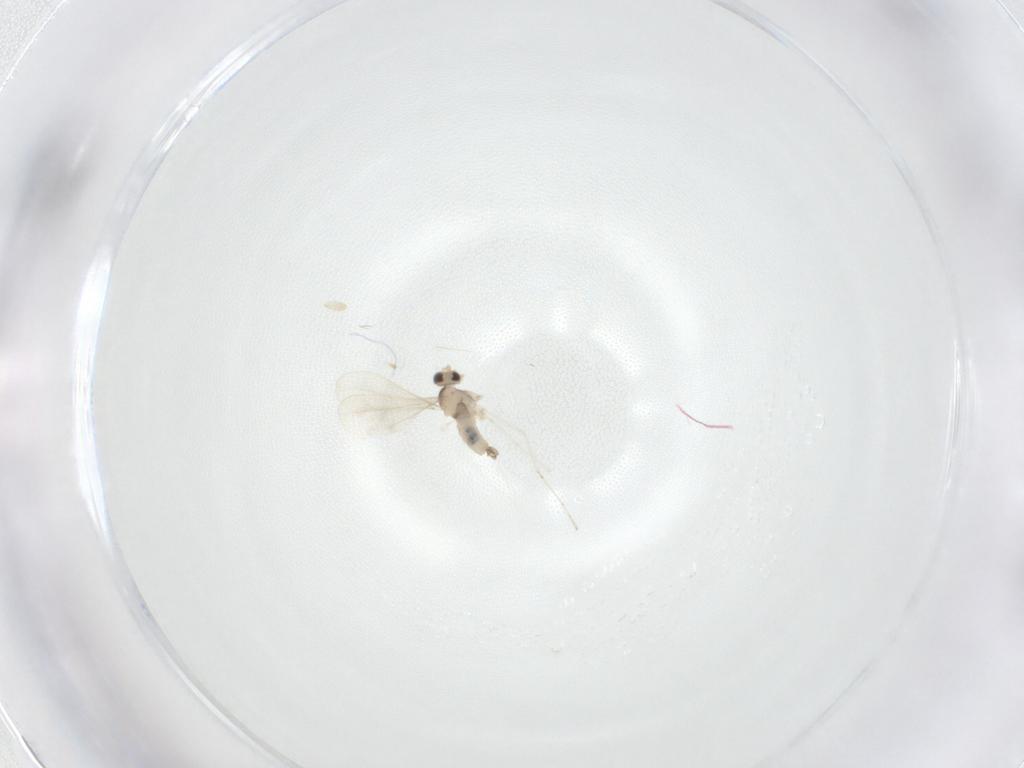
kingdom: Animalia
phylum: Arthropoda
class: Insecta
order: Diptera
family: Cecidomyiidae
